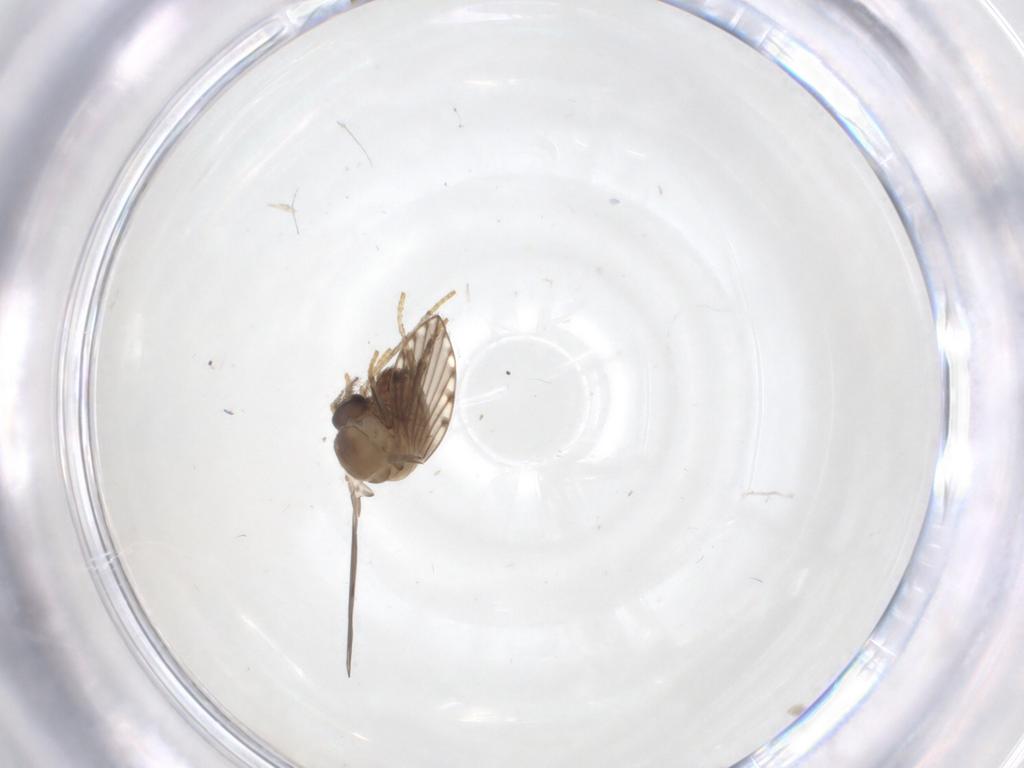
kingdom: Animalia
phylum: Arthropoda
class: Insecta
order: Diptera
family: Psychodidae
